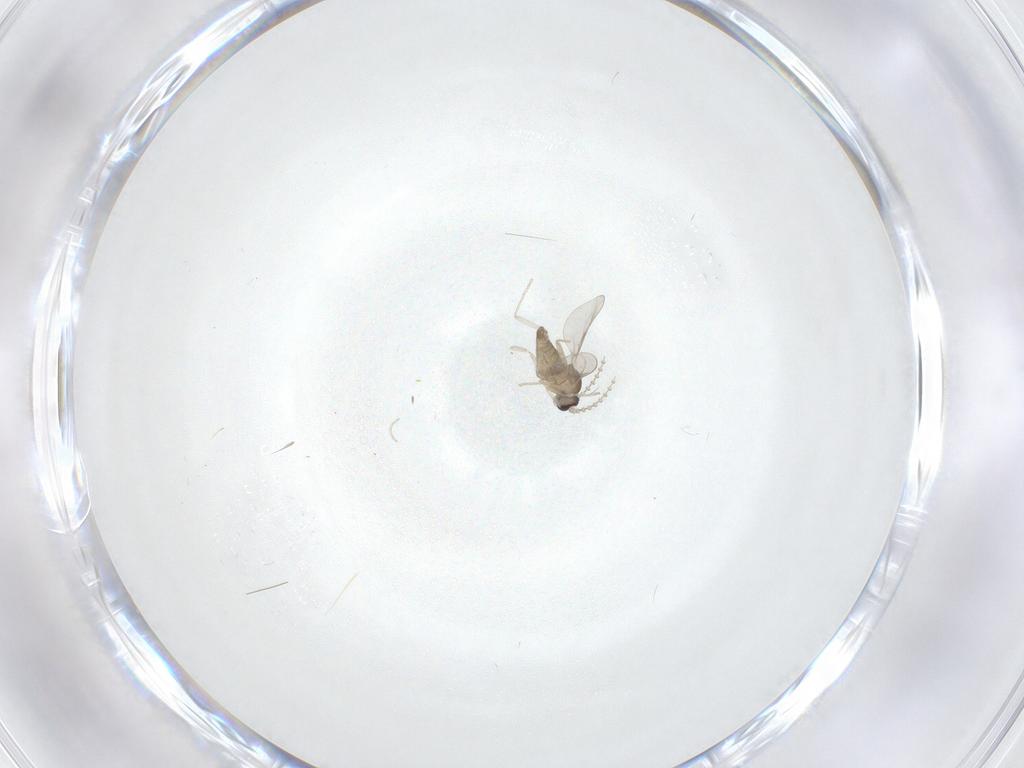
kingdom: Animalia
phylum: Arthropoda
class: Insecta
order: Diptera
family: Cecidomyiidae
